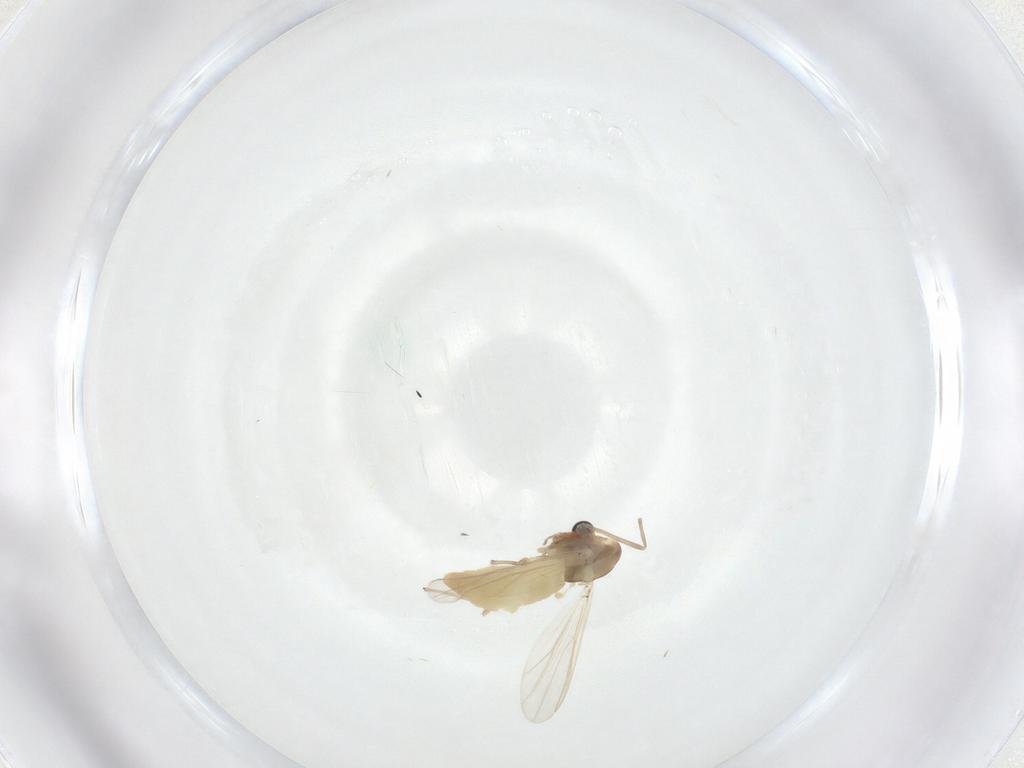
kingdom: Animalia
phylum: Arthropoda
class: Insecta
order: Diptera
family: Chironomidae
